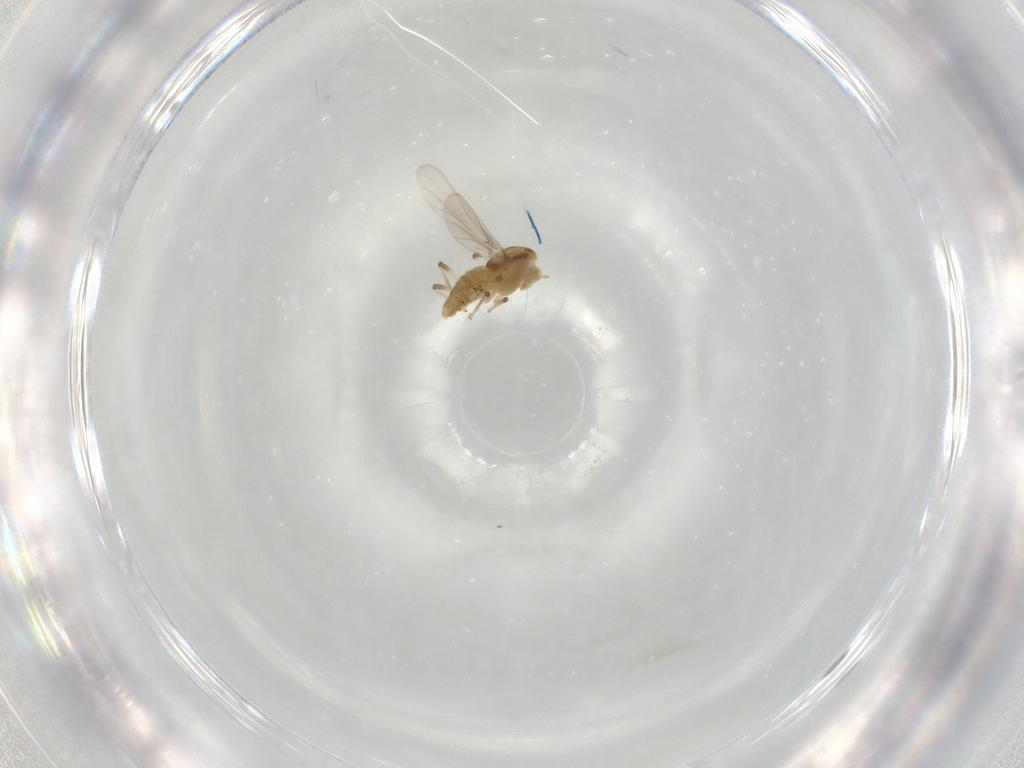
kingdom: Animalia
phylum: Arthropoda
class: Insecta
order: Diptera
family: Chironomidae
